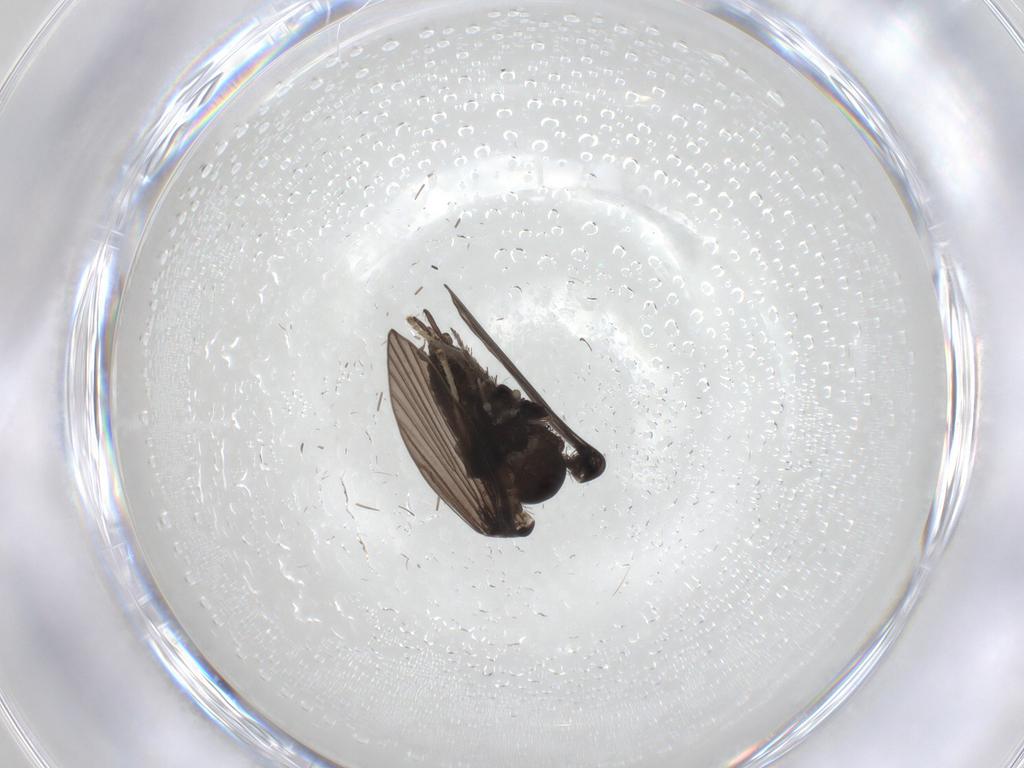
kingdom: Animalia
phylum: Arthropoda
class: Insecta
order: Diptera
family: Psychodidae
